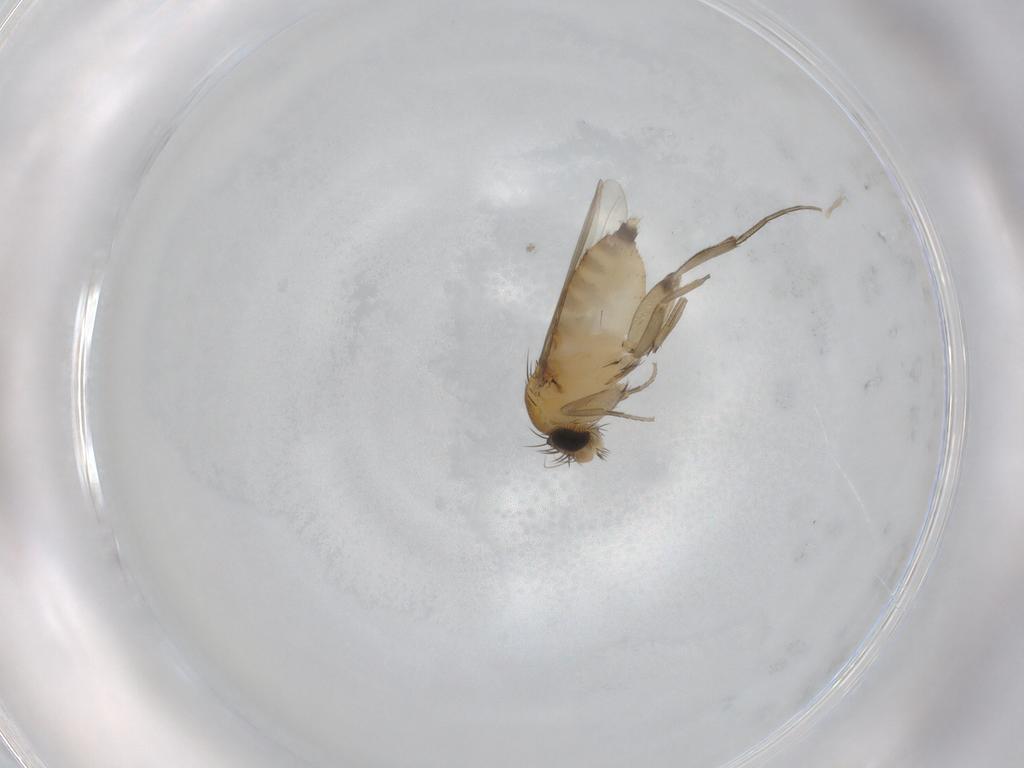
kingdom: Animalia
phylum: Arthropoda
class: Insecta
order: Diptera
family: Phoridae
